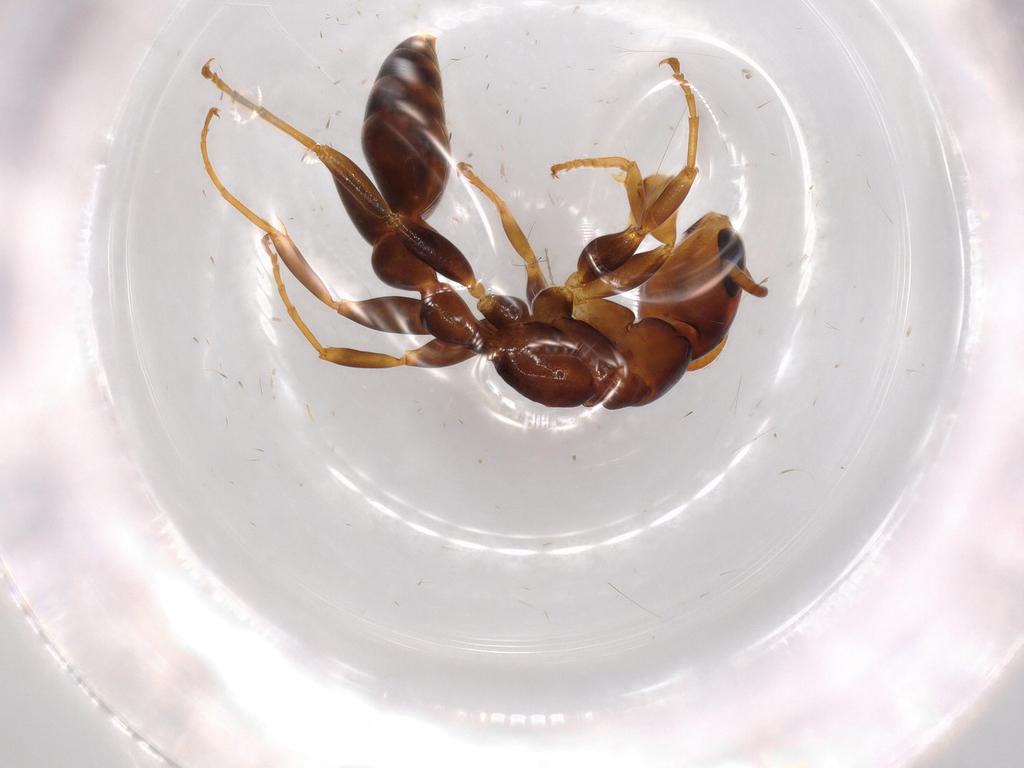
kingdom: Animalia
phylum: Arthropoda
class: Insecta
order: Hymenoptera
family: Formicidae
